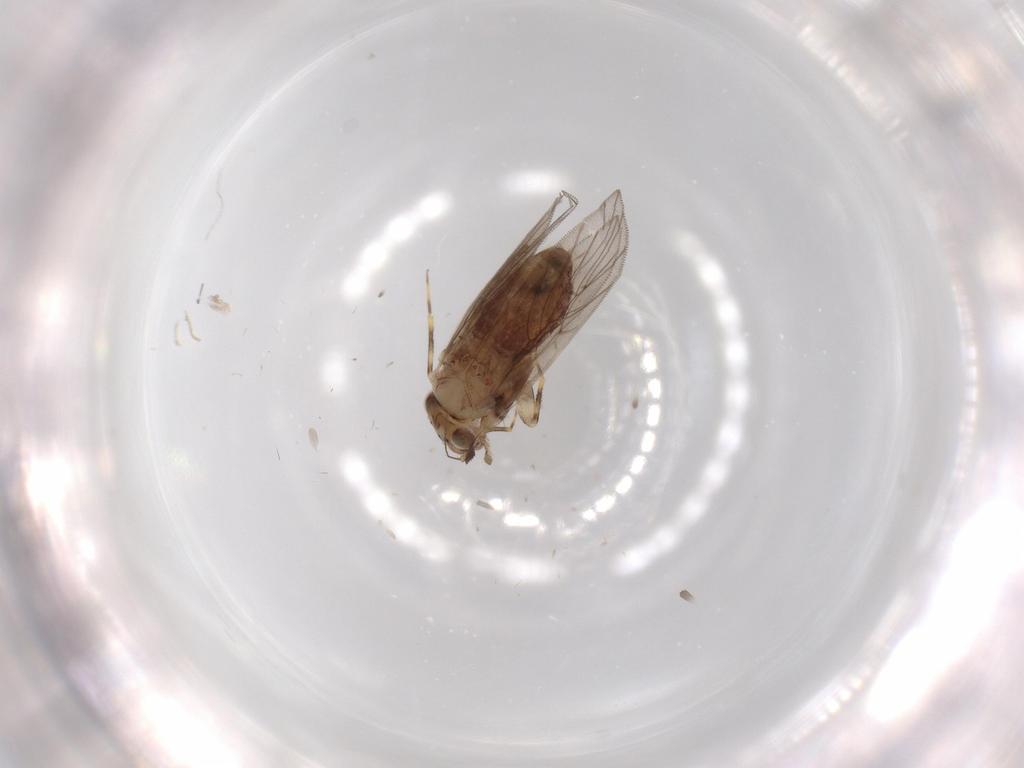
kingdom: Animalia
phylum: Arthropoda
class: Insecta
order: Psocodea
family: Lepidopsocidae
